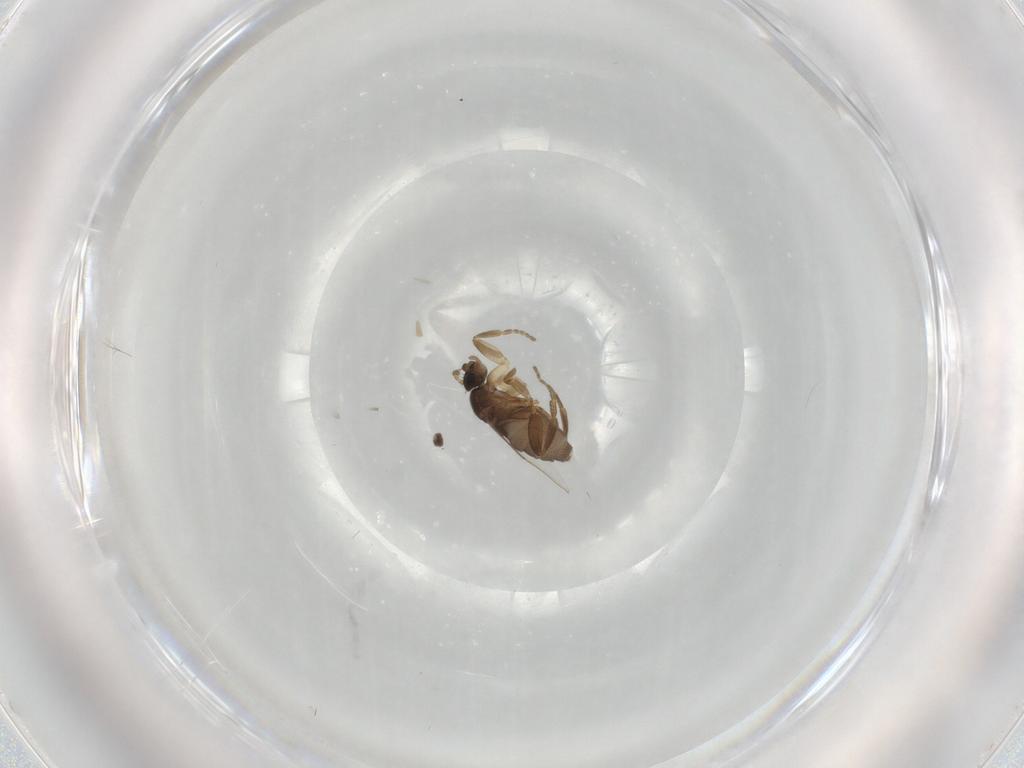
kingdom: Animalia
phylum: Arthropoda
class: Insecta
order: Diptera
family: Phoridae
